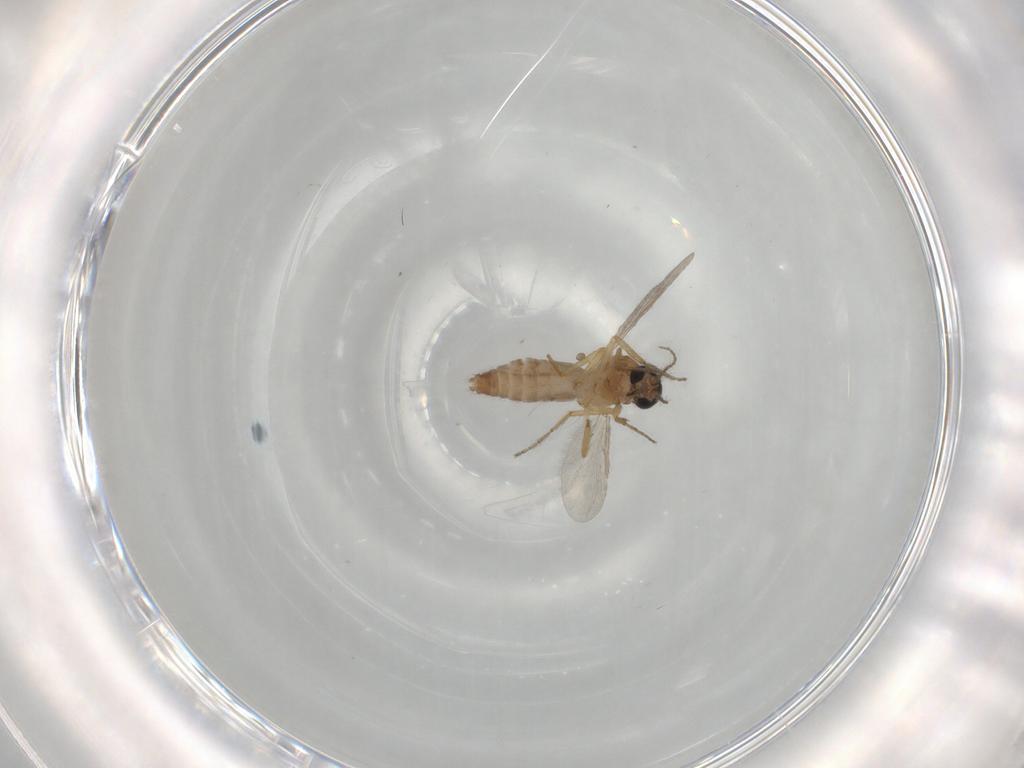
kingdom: Animalia
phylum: Arthropoda
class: Insecta
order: Diptera
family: Ceratopogonidae
